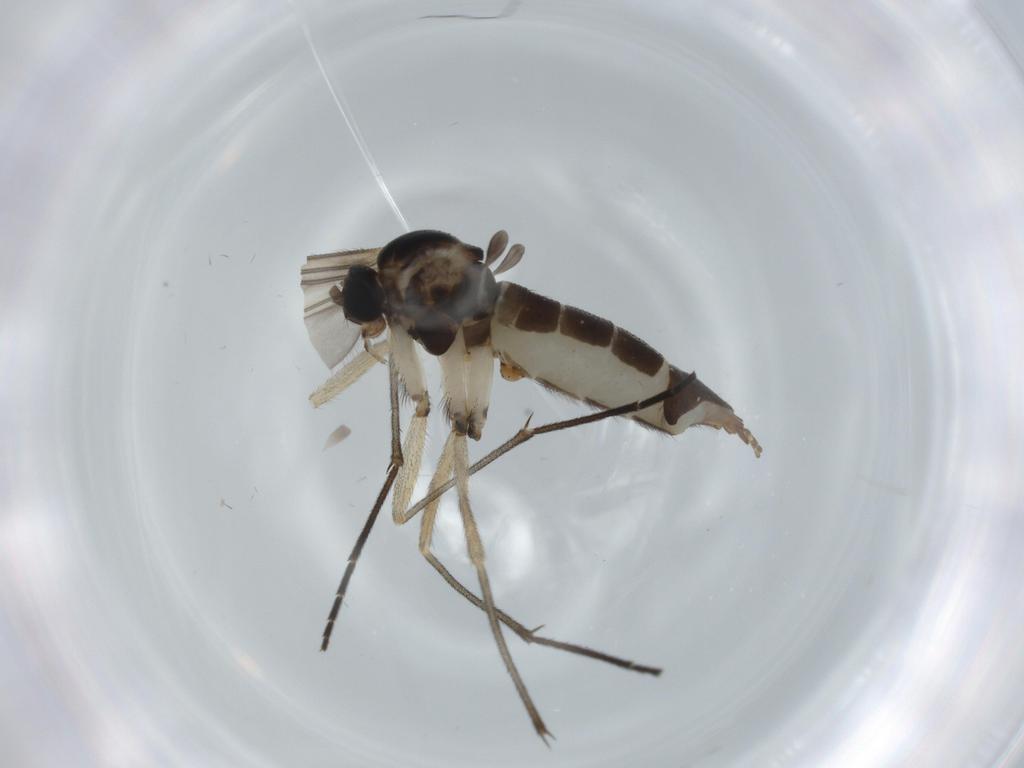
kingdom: Animalia
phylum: Arthropoda
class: Insecta
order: Diptera
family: Sciaridae
